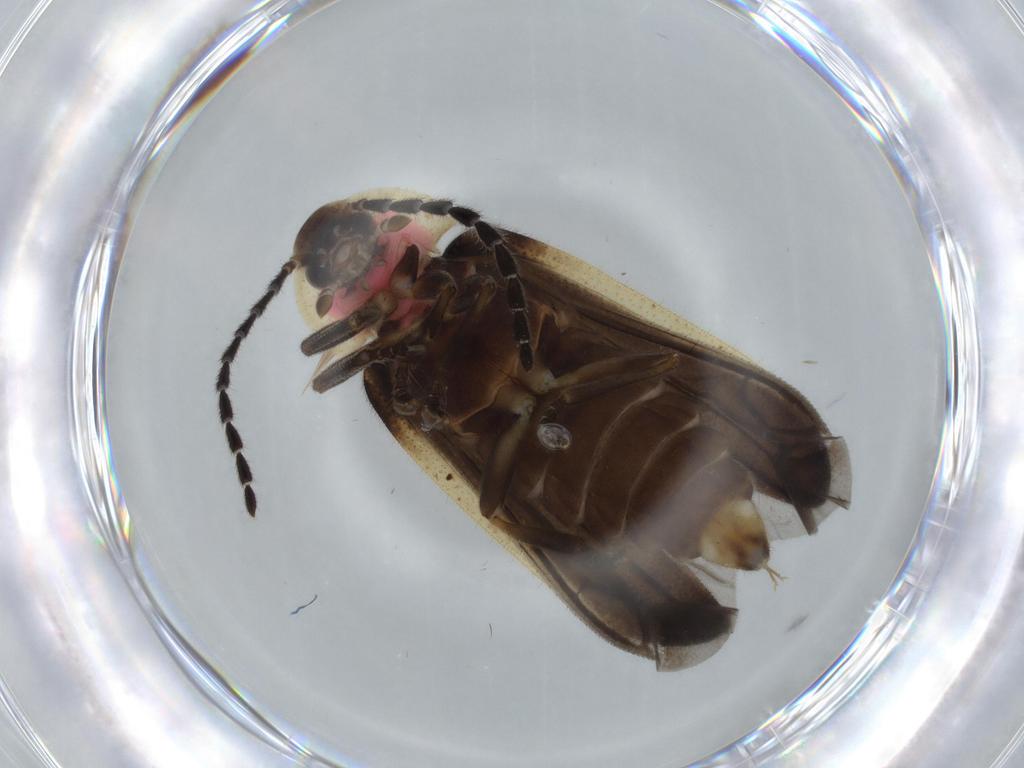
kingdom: Animalia
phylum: Arthropoda
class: Insecta
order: Coleoptera
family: Lampyridae
